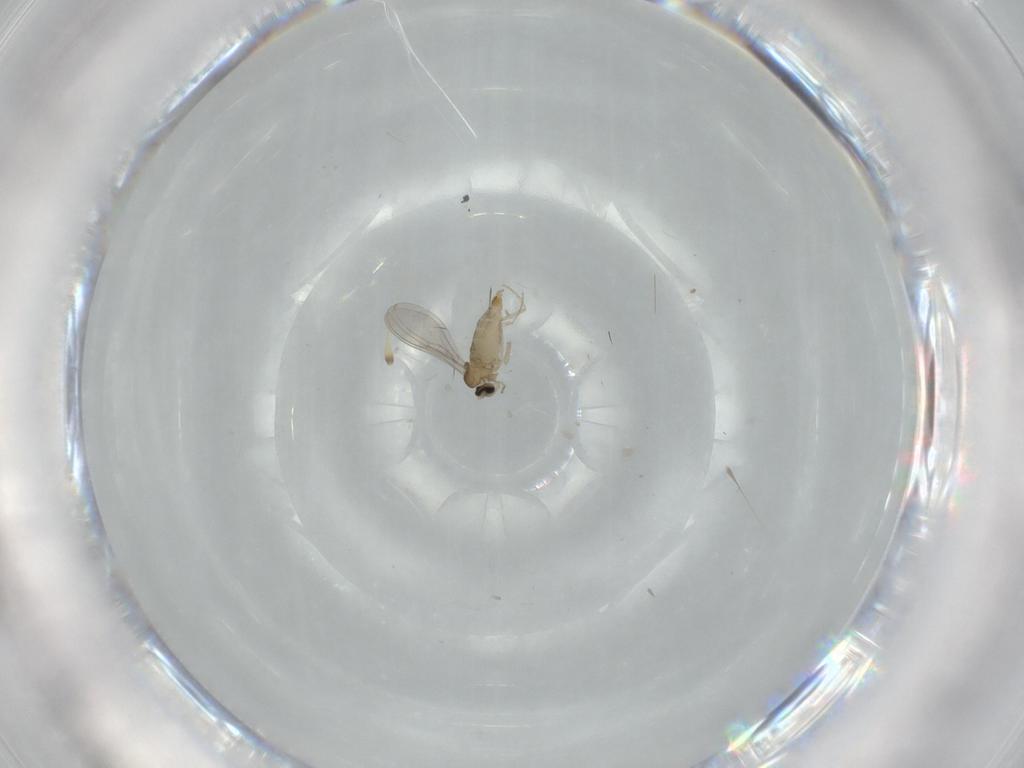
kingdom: Animalia
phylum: Arthropoda
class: Insecta
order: Diptera
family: Cecidomyiidae
